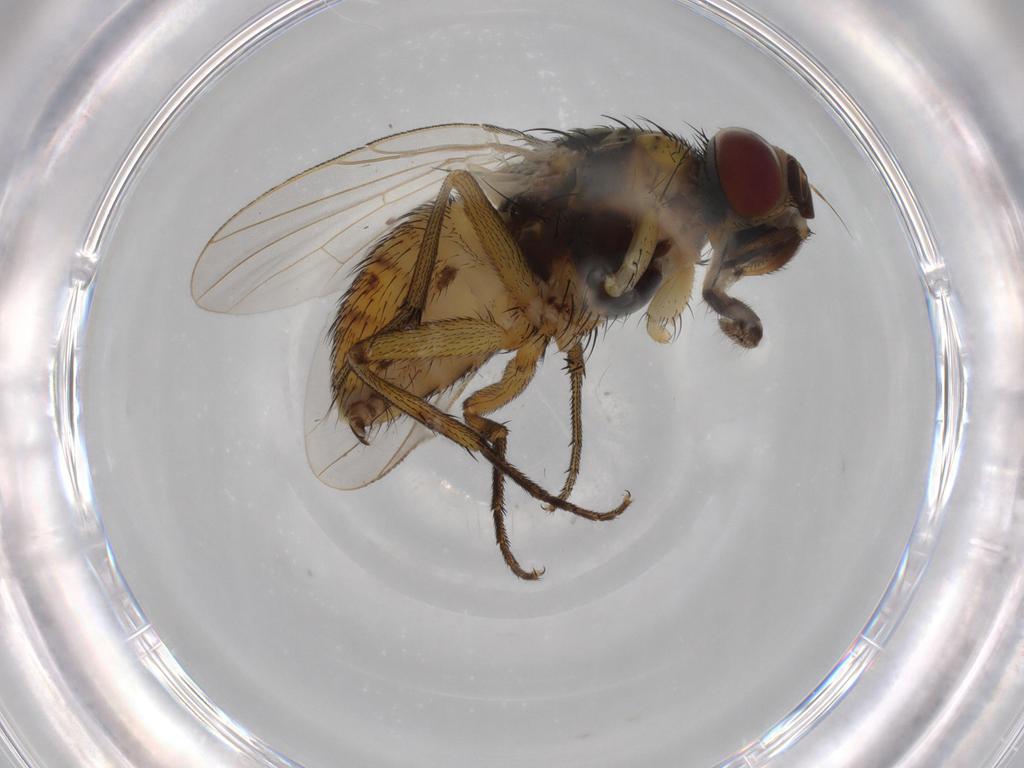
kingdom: Animalia
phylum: Arthropoda
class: Insecta
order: Diptera
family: Muscidae
